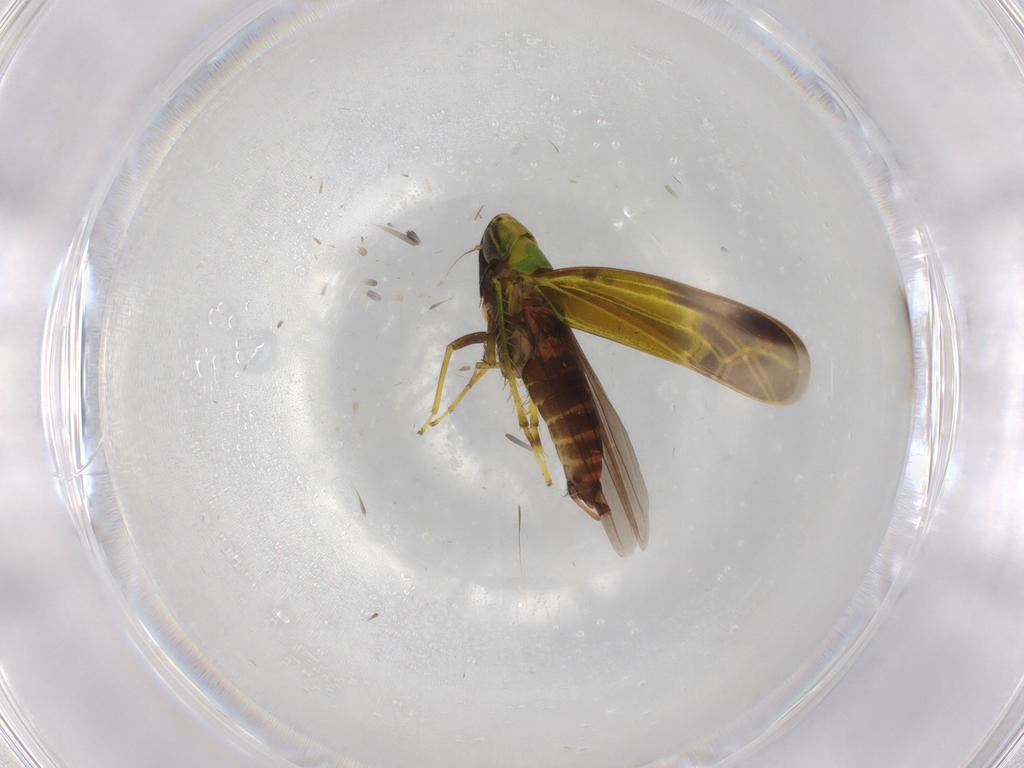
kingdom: Animalia
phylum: Arthropoda
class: Insecta
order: Hemiptera
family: Cicadellidae
